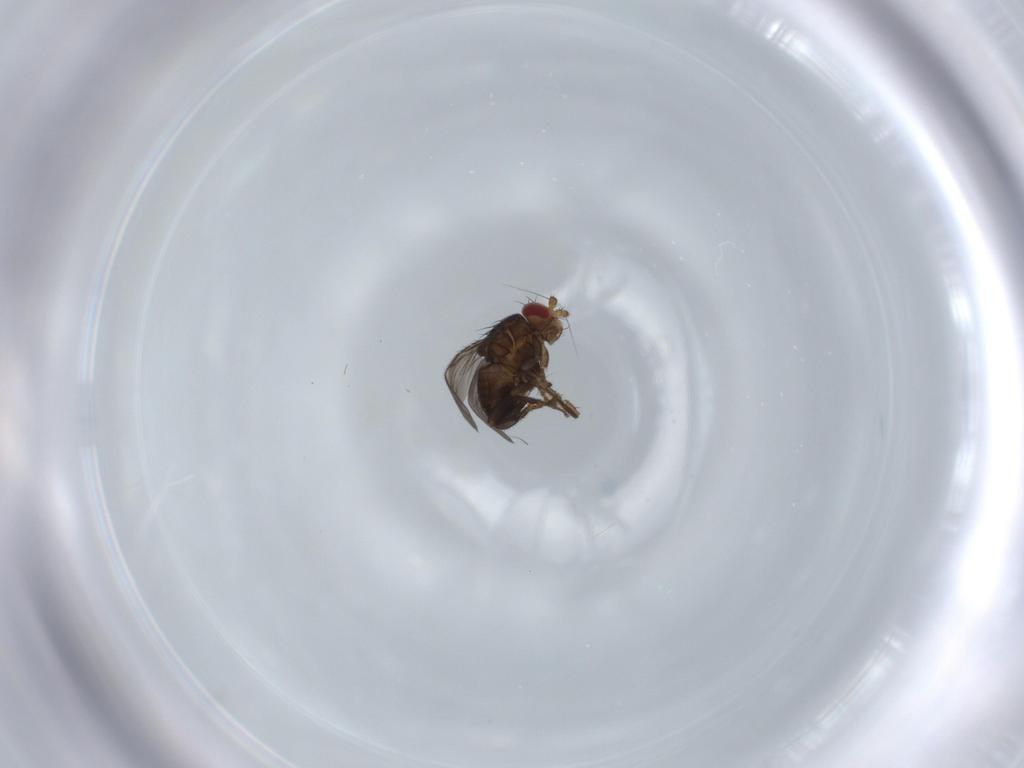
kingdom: Animalia
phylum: Arthropoda
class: Insecta
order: Diptera
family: Sphaeroceridae
